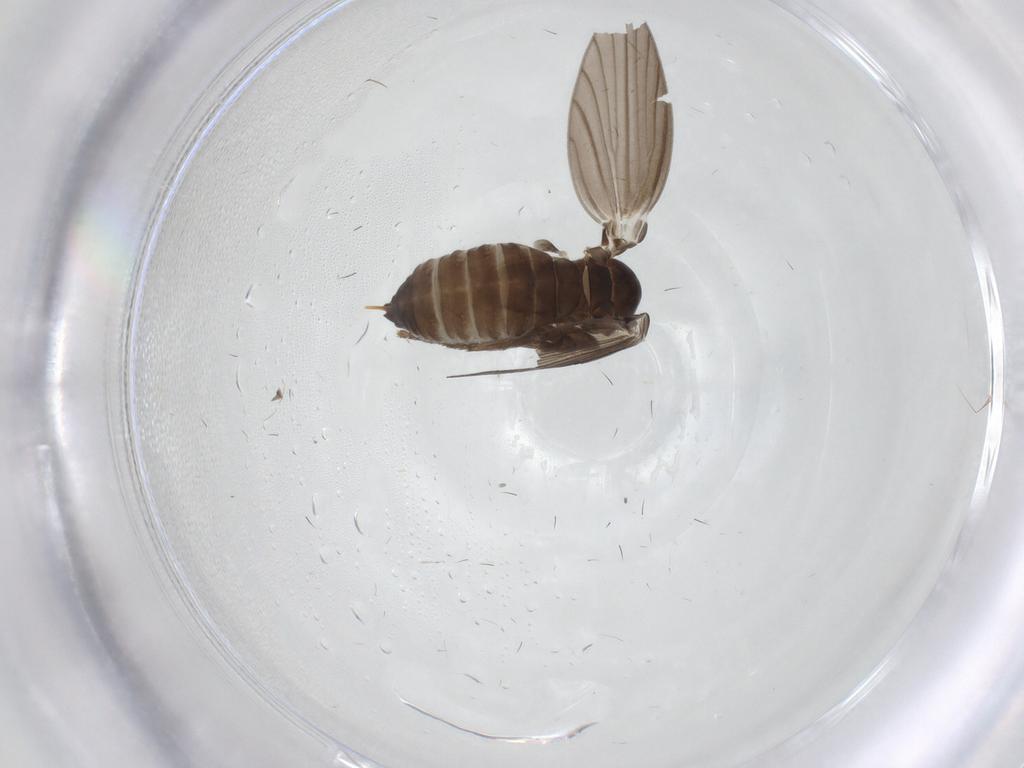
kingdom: Animalia
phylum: Arthropoda
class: Insecta
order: Diptera
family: Psychodidae
